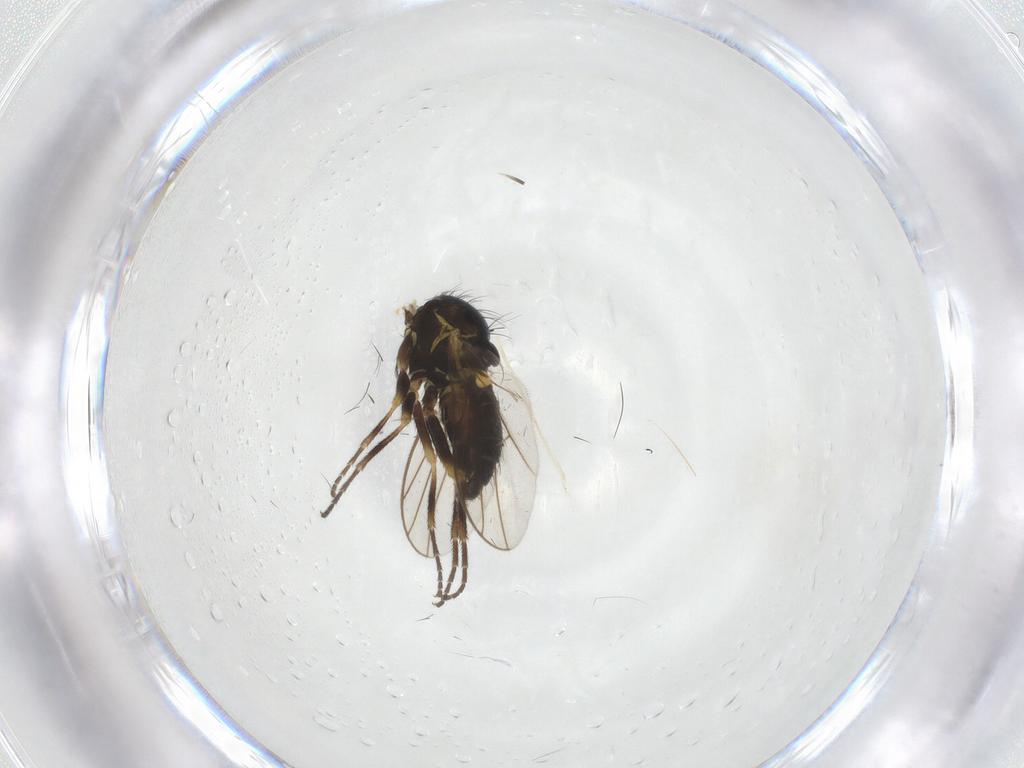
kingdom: Animalia
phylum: Arthropoda
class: Insecta
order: Diptera
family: Ceratopogonidae
